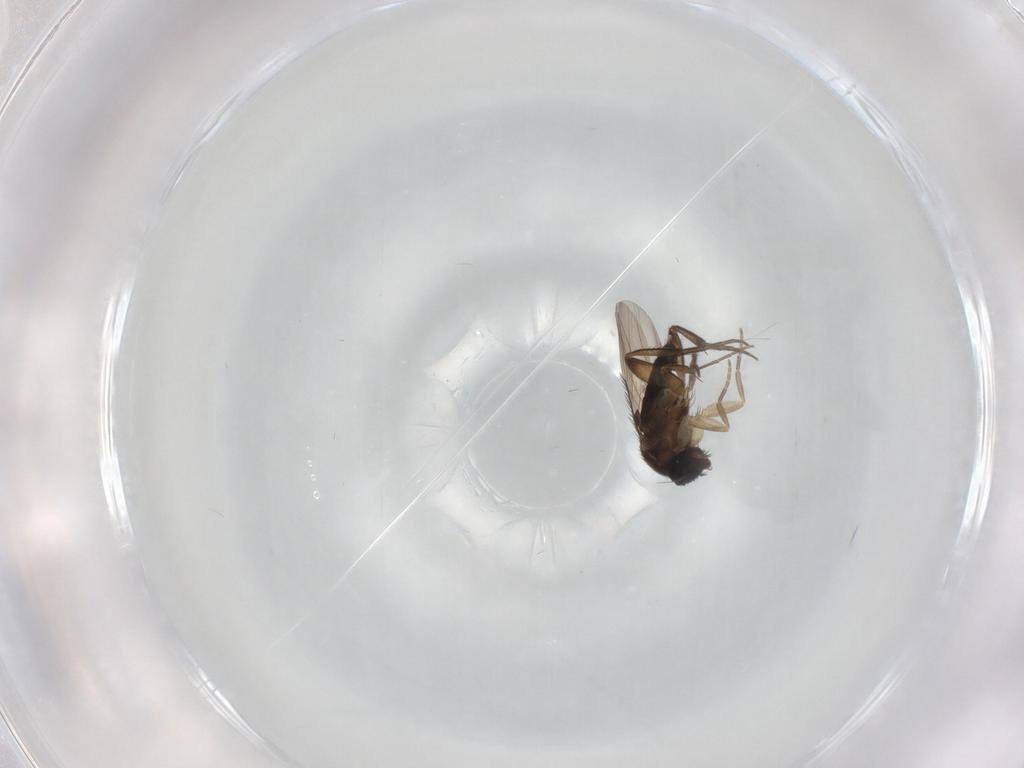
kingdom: Animalia
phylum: Arthropoda
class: Insecta
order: Diptera
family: Phoridae
